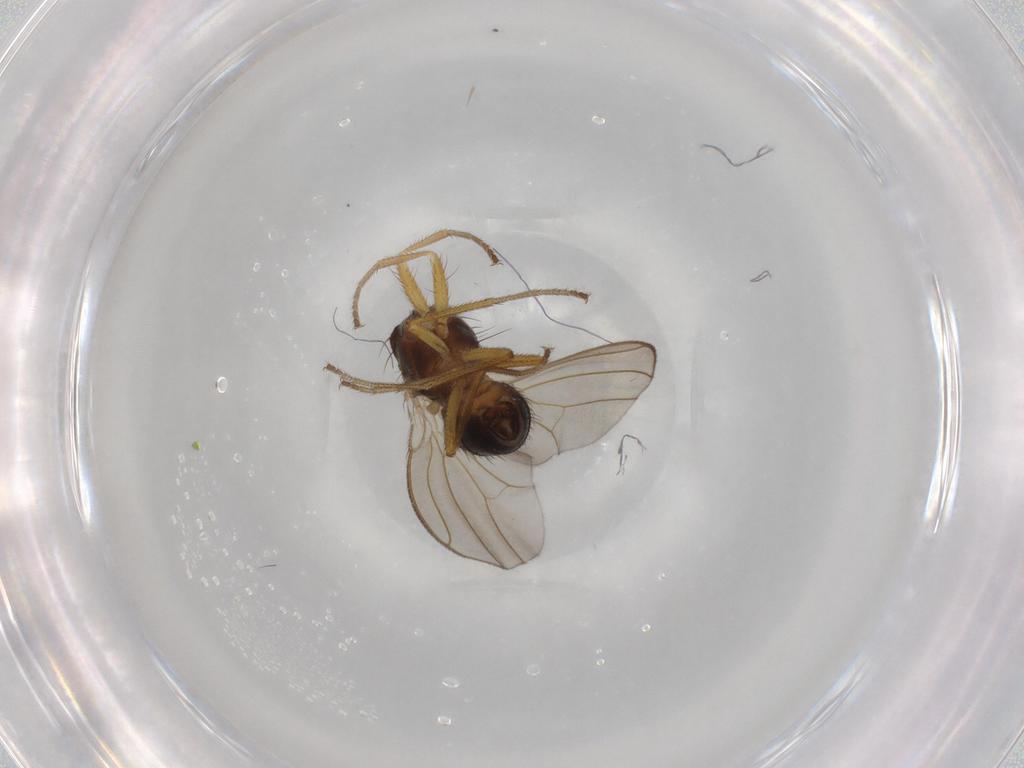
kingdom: Animalia
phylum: Arthropoda
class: Insecta
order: Diptera
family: Drosophilidae
